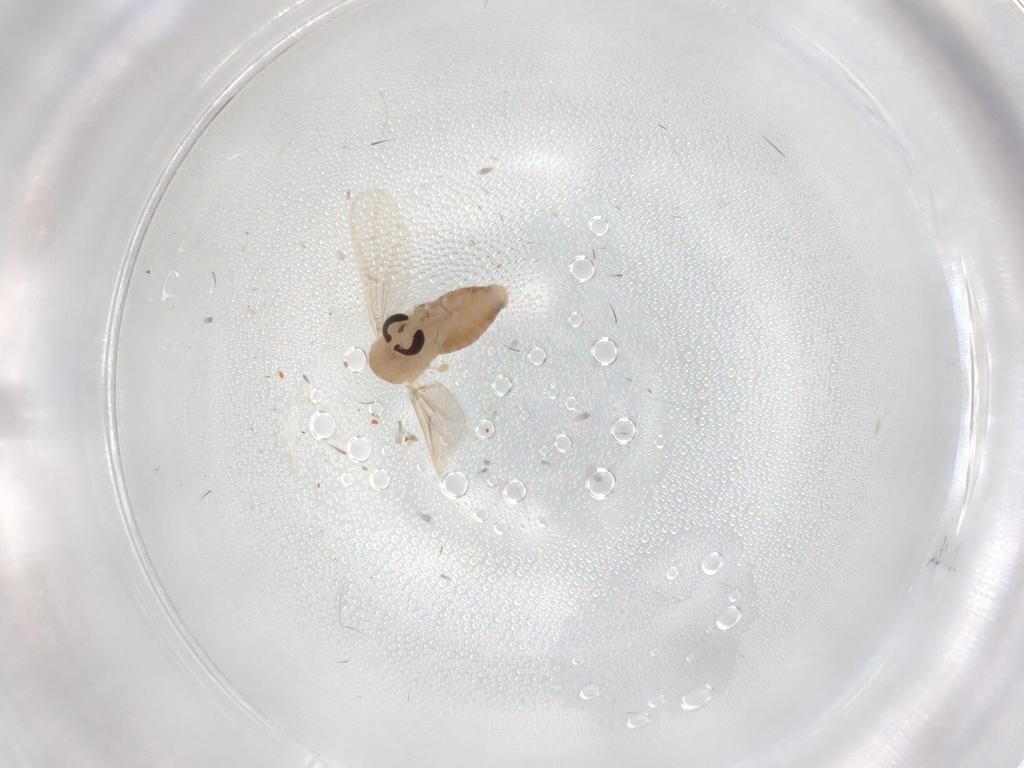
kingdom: Animalia
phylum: Arthropoda
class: Insecta
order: Diptera
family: Chironomidae
